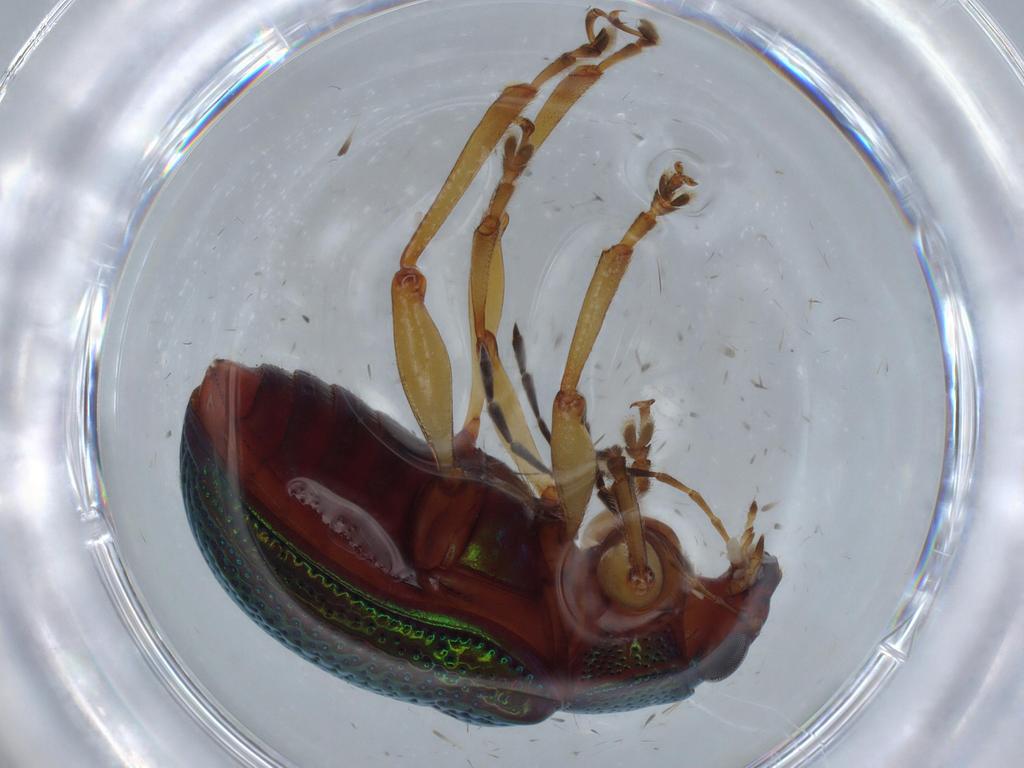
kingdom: Animalia
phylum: Arthropoda
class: Insecta
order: Coleoptera
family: Chrysomelidae
